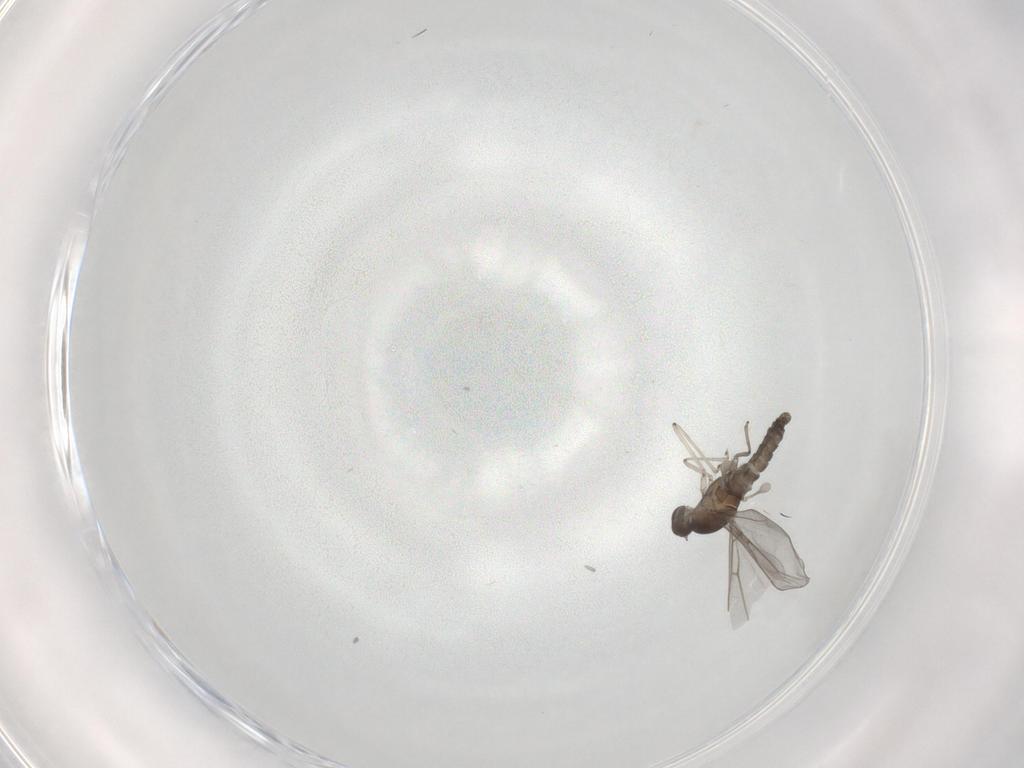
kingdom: Animalia
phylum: Arthropoda
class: Insecta
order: Diptera
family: Cecidomyiidae
